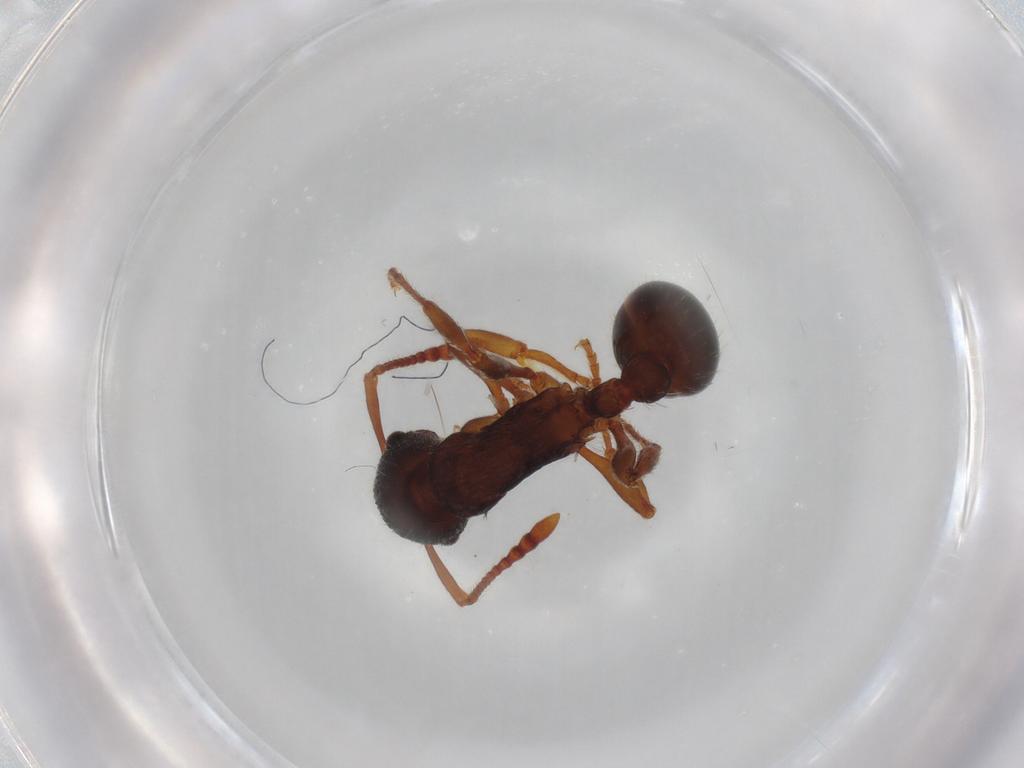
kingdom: Animalia
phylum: Arthropoda
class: Insecta
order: Hymenoptera
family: Formicidae
